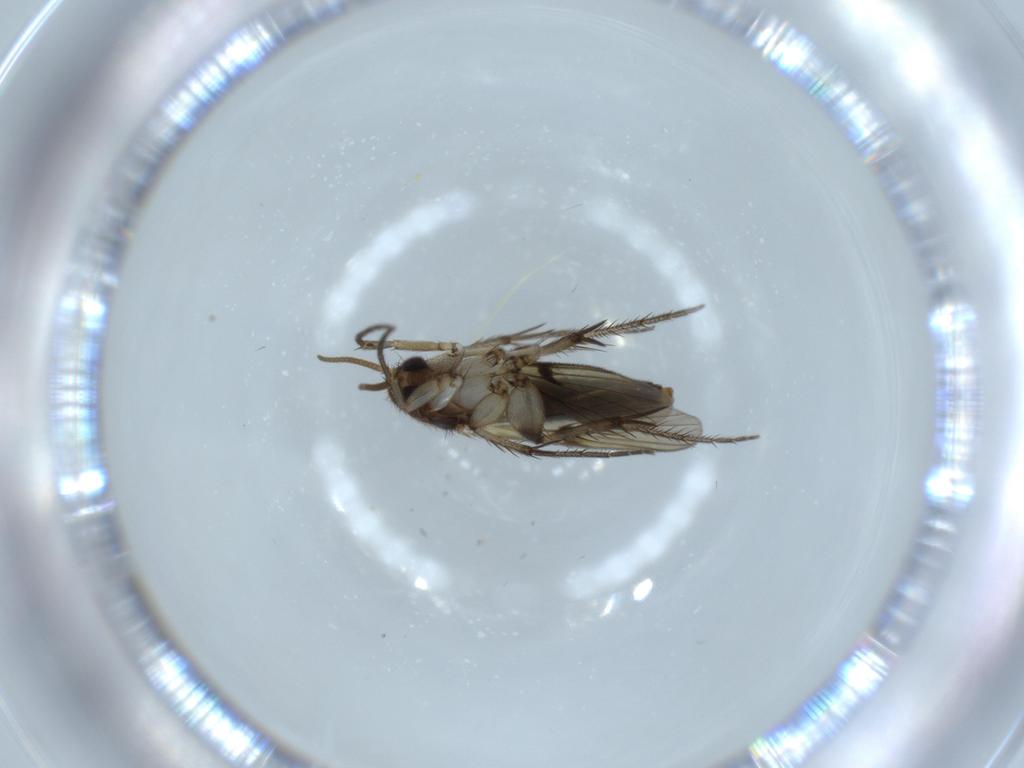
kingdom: Animalia
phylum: Arthropoda
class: Insecta
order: Diptera
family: Mycetophilidae
